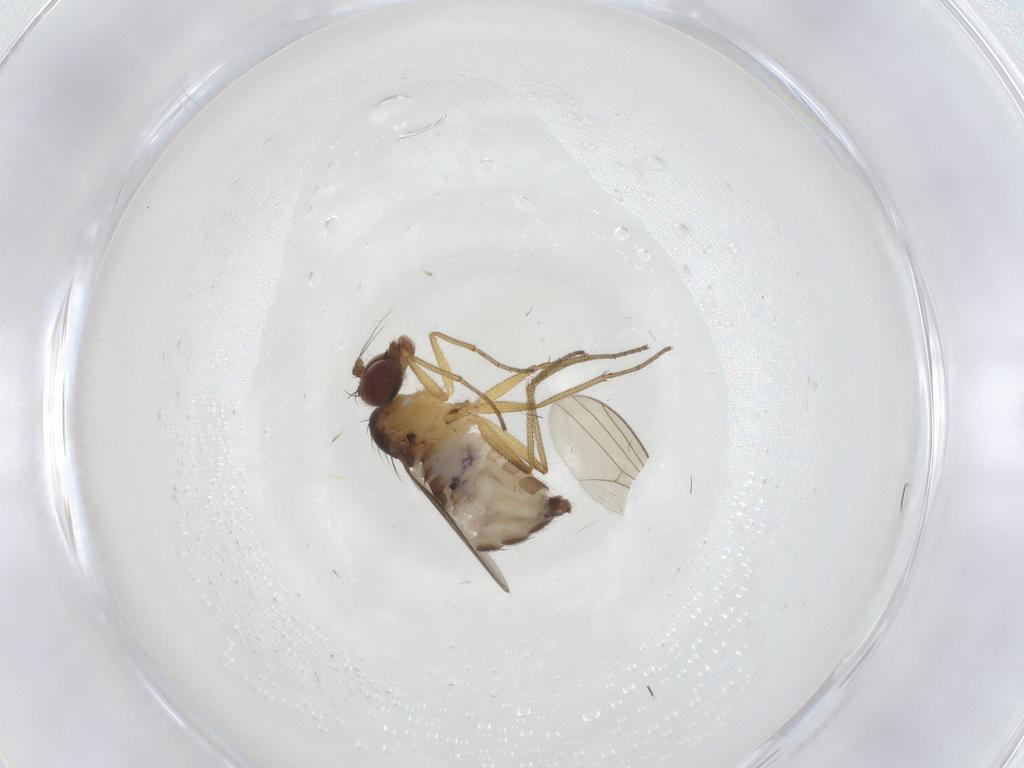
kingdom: Animalia
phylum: Arthropoda
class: Insecta
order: Diptera
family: Dolichopodidae
